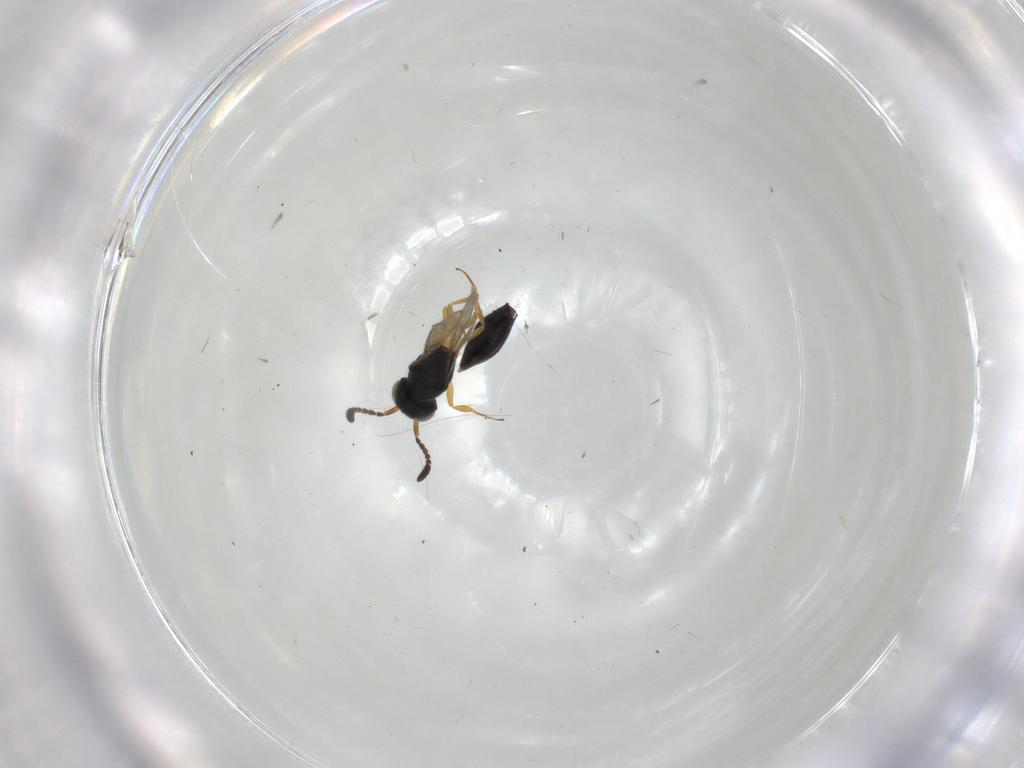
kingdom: Animalia
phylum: Arthropoda
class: Insecta
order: Hymenoptera
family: Scelionidae
